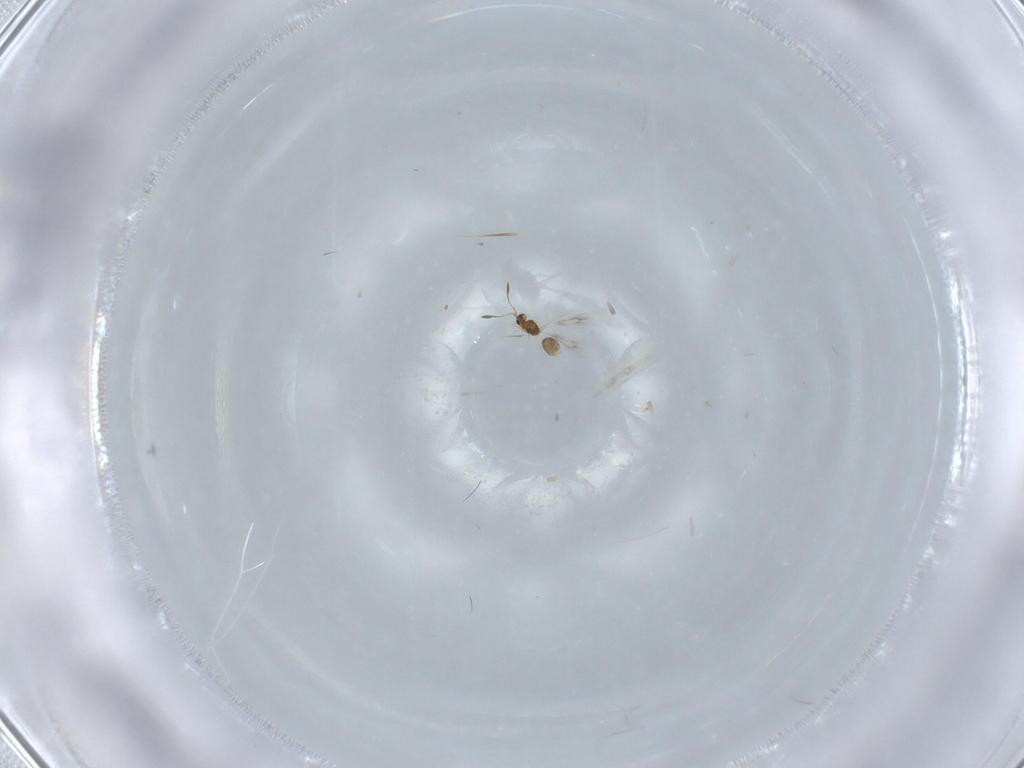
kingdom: Animalia
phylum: Arthropoda
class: Insecta
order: Hymenoptera
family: Mymarommatidae
